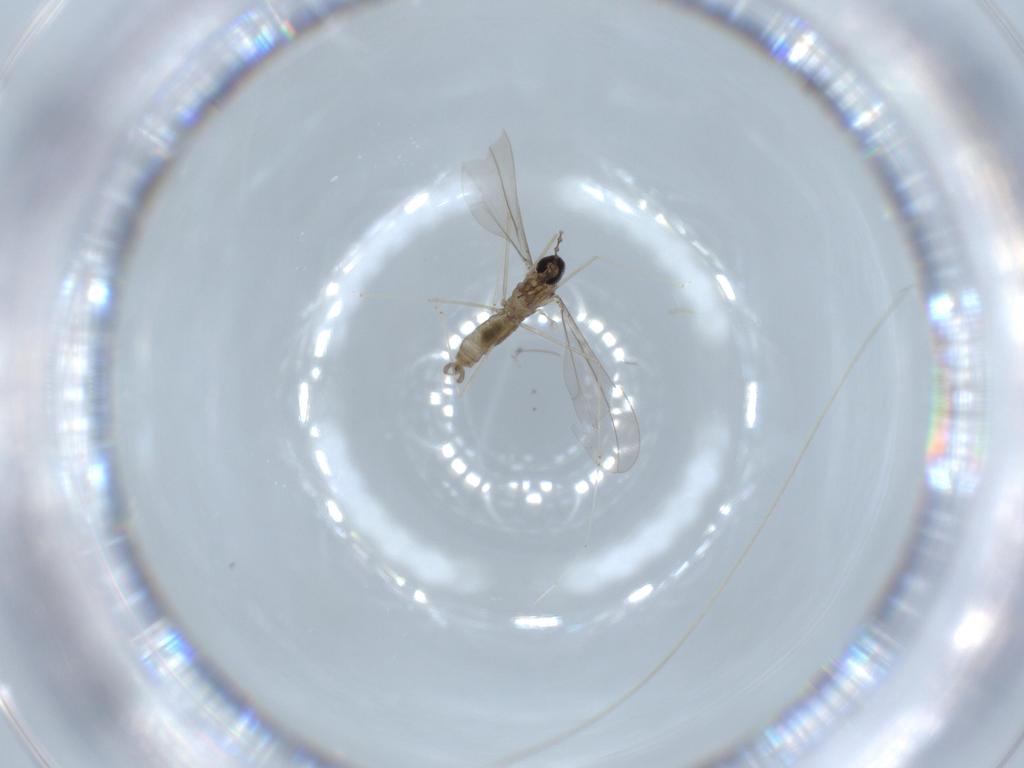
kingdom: Animalia
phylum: Arthropoda
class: Insecta
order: Diptera
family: Cecidomyiidae
